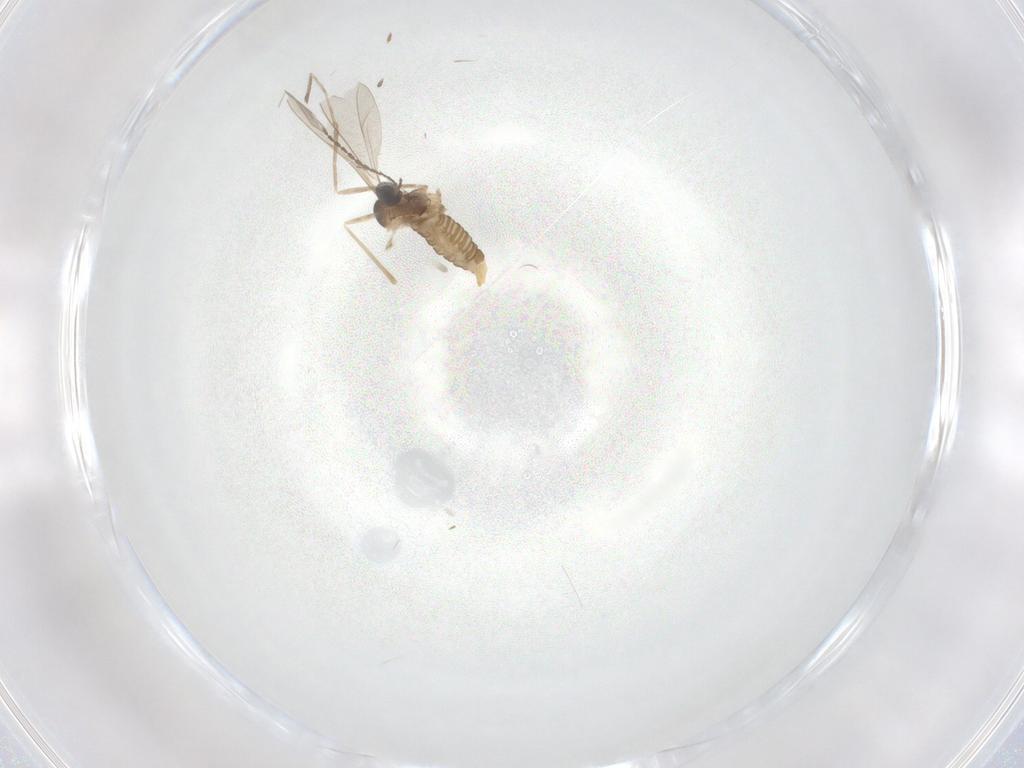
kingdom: Animalia
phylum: Arthropoda
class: Insecta
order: Diptera
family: Cecidomyiidae
